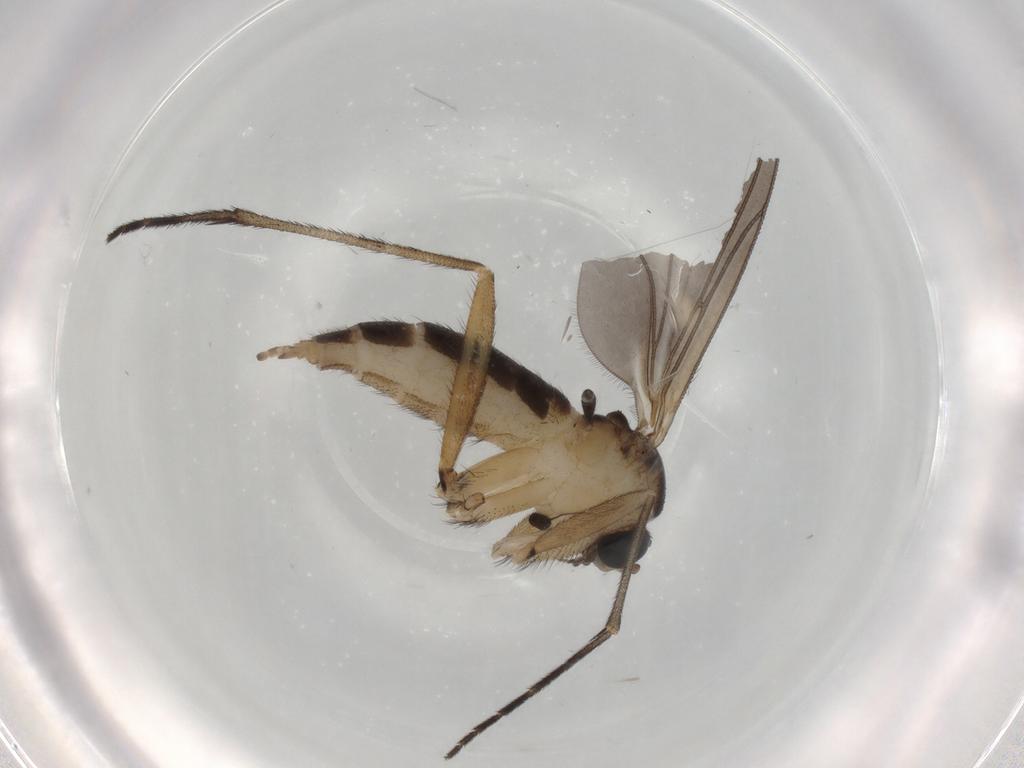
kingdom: Animalia
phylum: Arthropoda
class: Insecta
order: Diptera
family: Sciaridae
